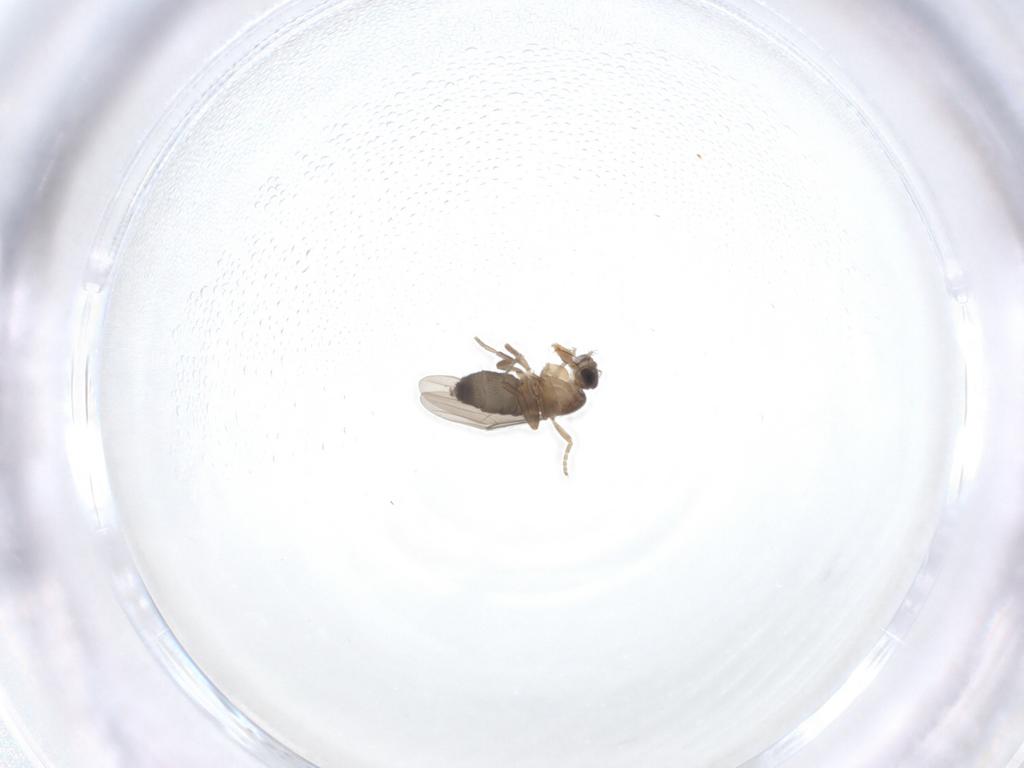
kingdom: Animalia
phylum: Arthropoda
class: Insecta
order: Diptera
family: Phoridae
